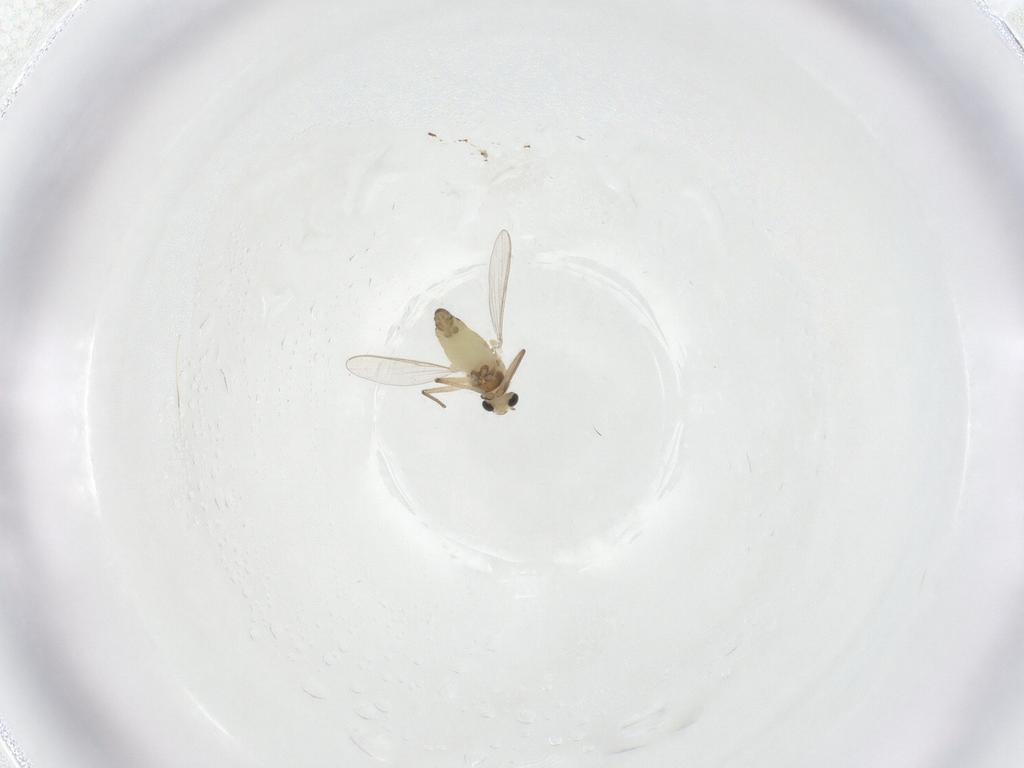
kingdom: Animalia
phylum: Arthropoda
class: Insecta
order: Diptera
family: Chironomidae
